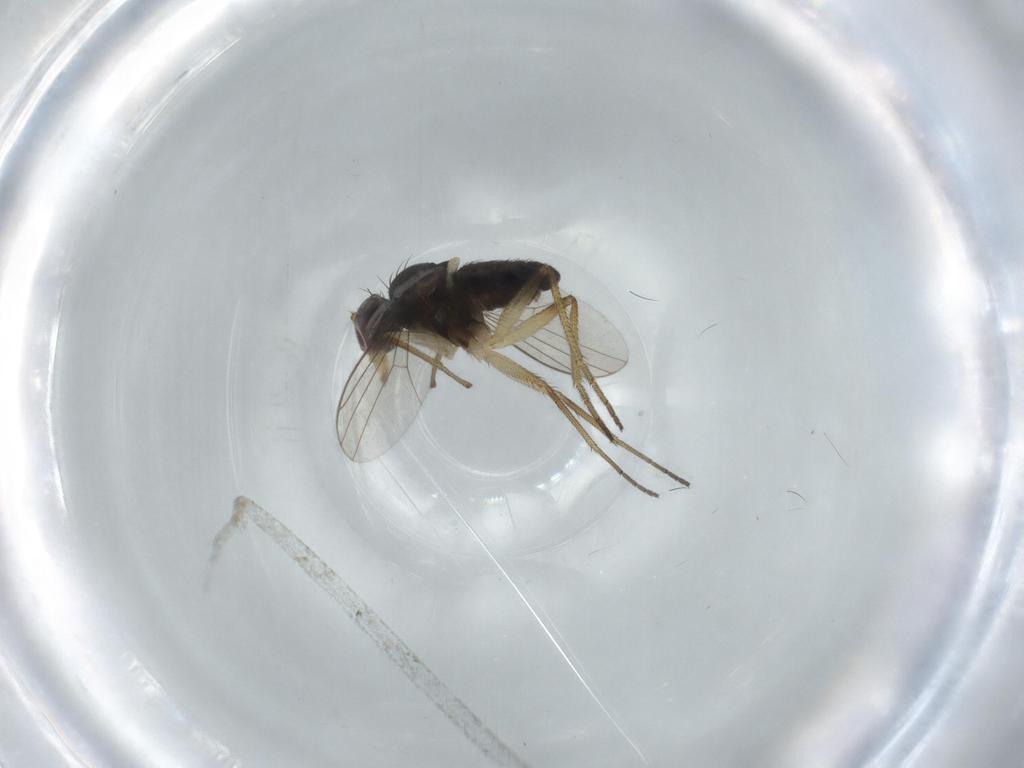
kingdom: Animalia
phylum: Arthropoda
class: Insecta
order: Diptera
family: Dolichopodidae
